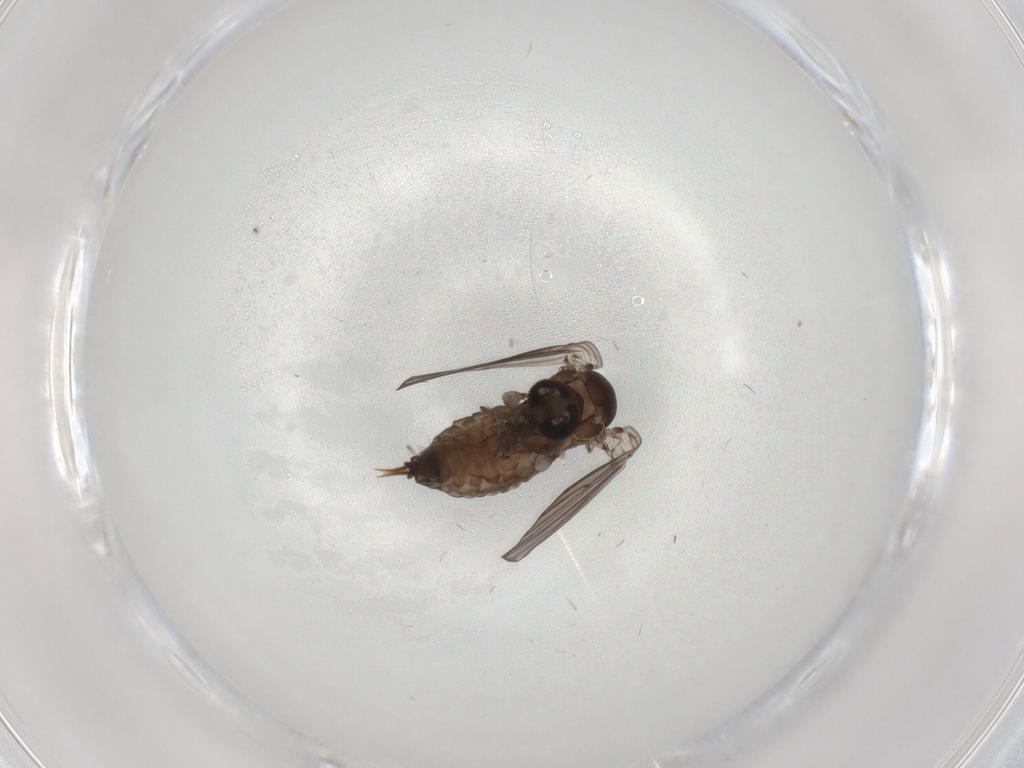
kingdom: Animalia
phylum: Arthropoda
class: Insecta
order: Diptera
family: Psychodidae
